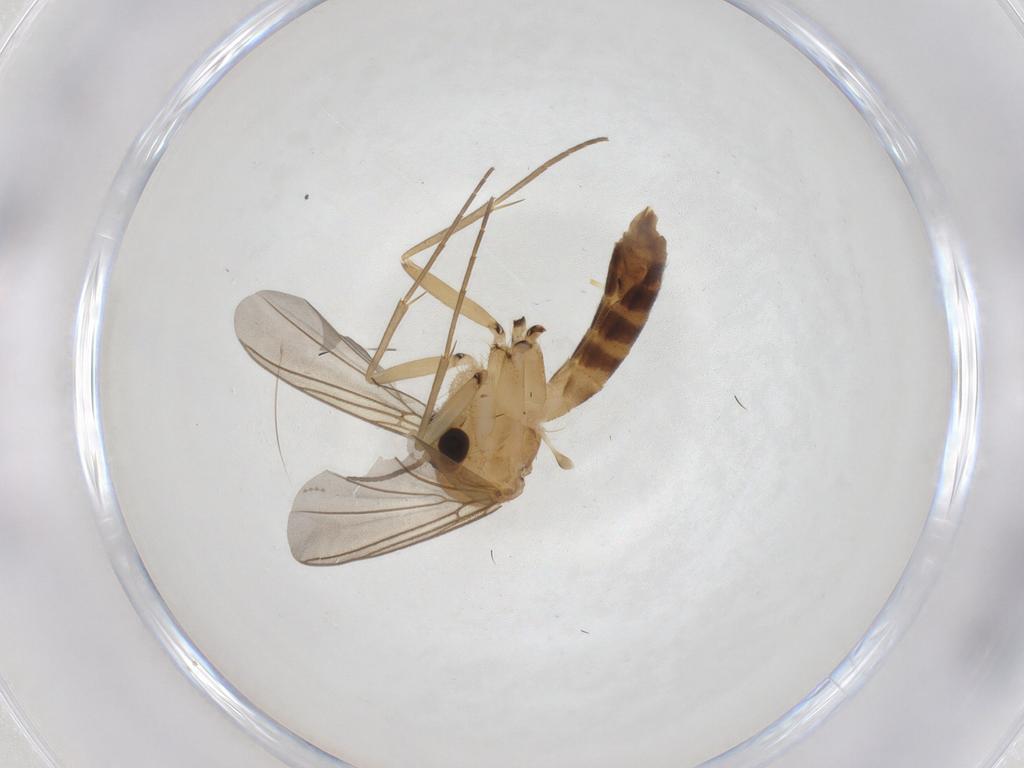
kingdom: Animalia
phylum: Arthropoda
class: Insecta
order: Diptera
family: Mycetophilidae
